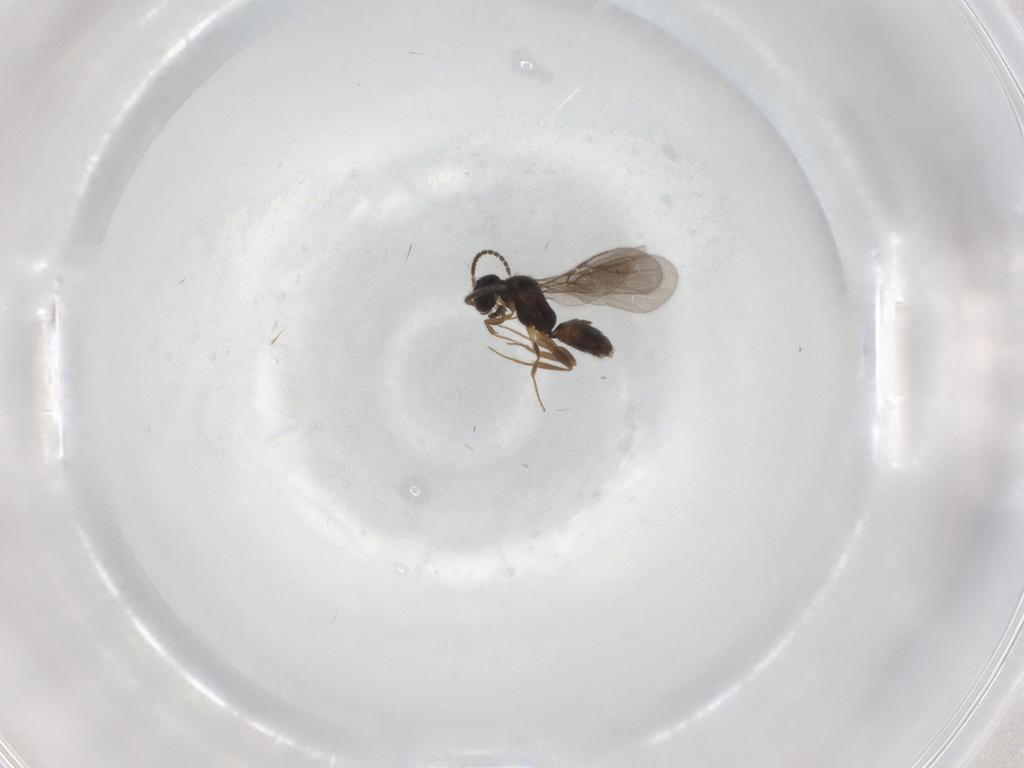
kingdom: Animalia
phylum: Arthropoda
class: Insecta
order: Hymenoptera
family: Bethylidae
